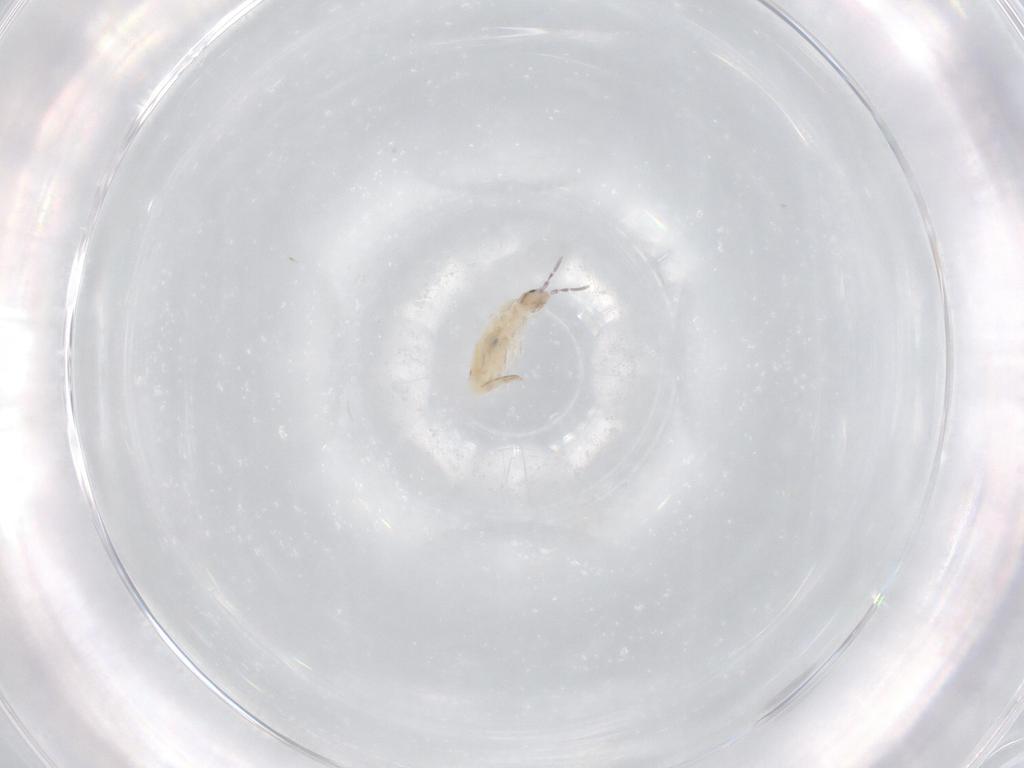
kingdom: Animalia
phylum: Arthropoda
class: Collembola
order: Entomobryomorpha
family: Entomobryidae
